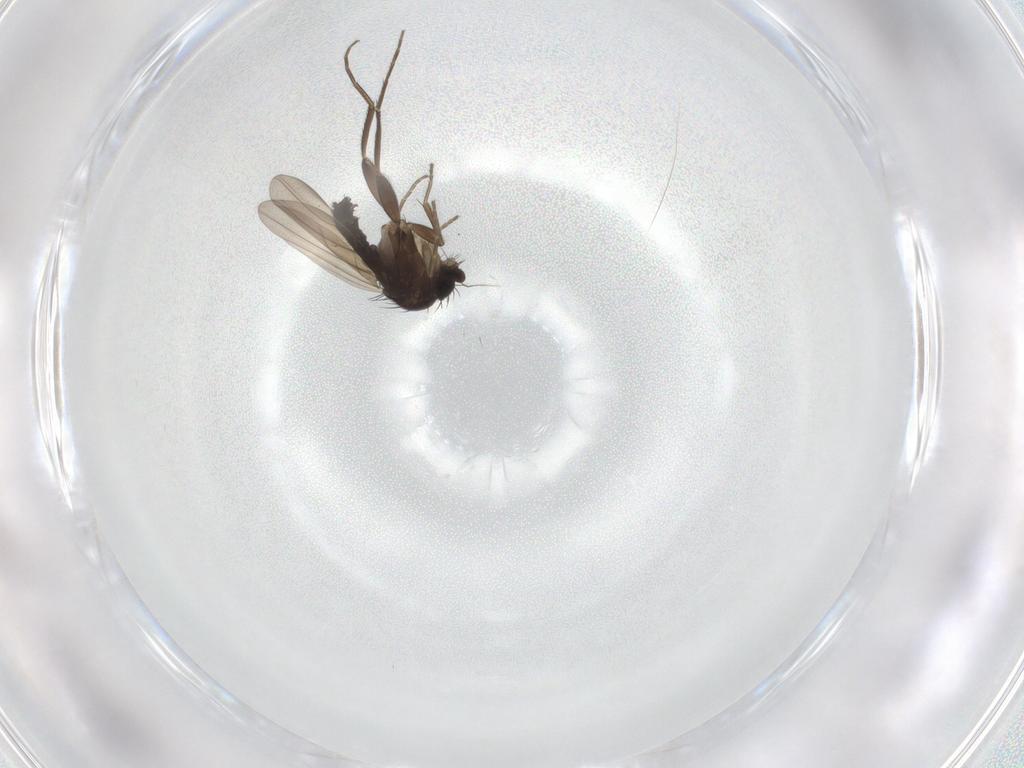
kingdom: Animalia
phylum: Arthropoda
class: Insecta
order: Diptera
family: Phoridae
